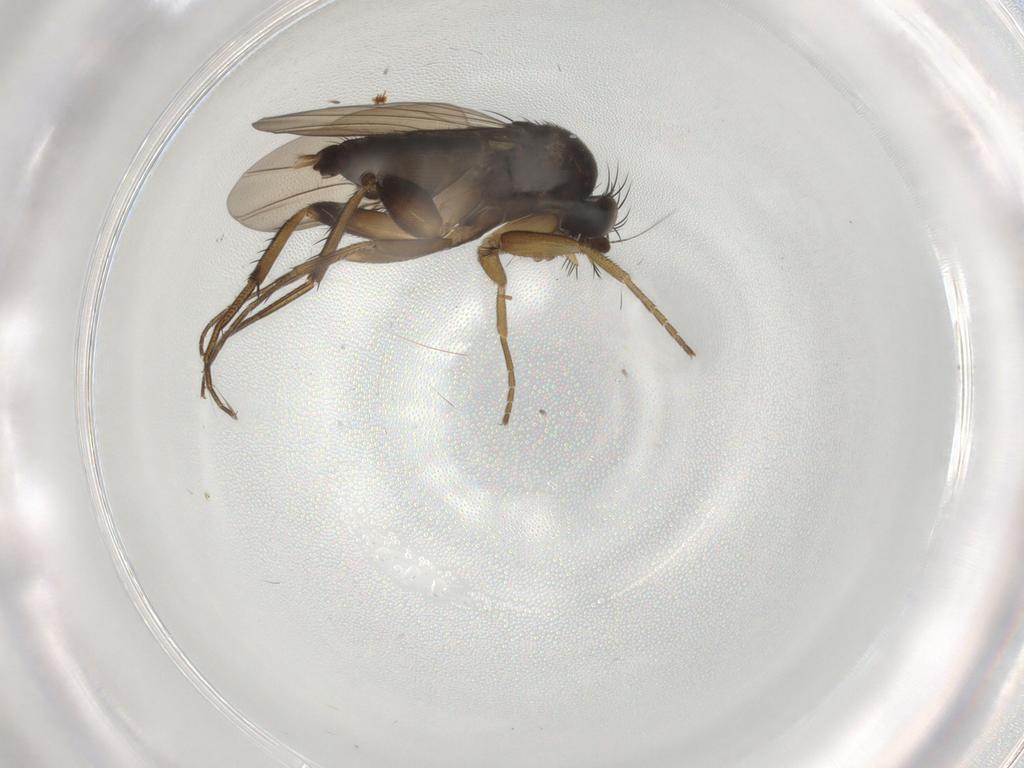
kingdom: Animalia
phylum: Arthropoda
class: Insecta
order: Diptera
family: Phoridae
